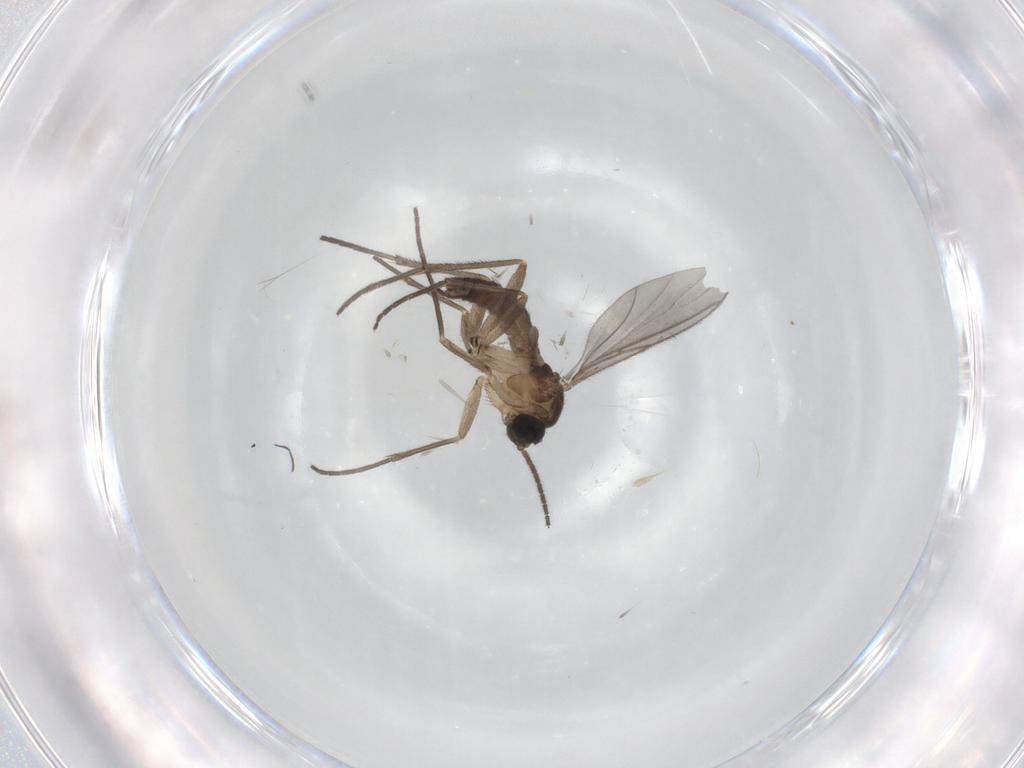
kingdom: Animalia
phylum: Arthropoda
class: Insecta
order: Diptera
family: Sciaridae
